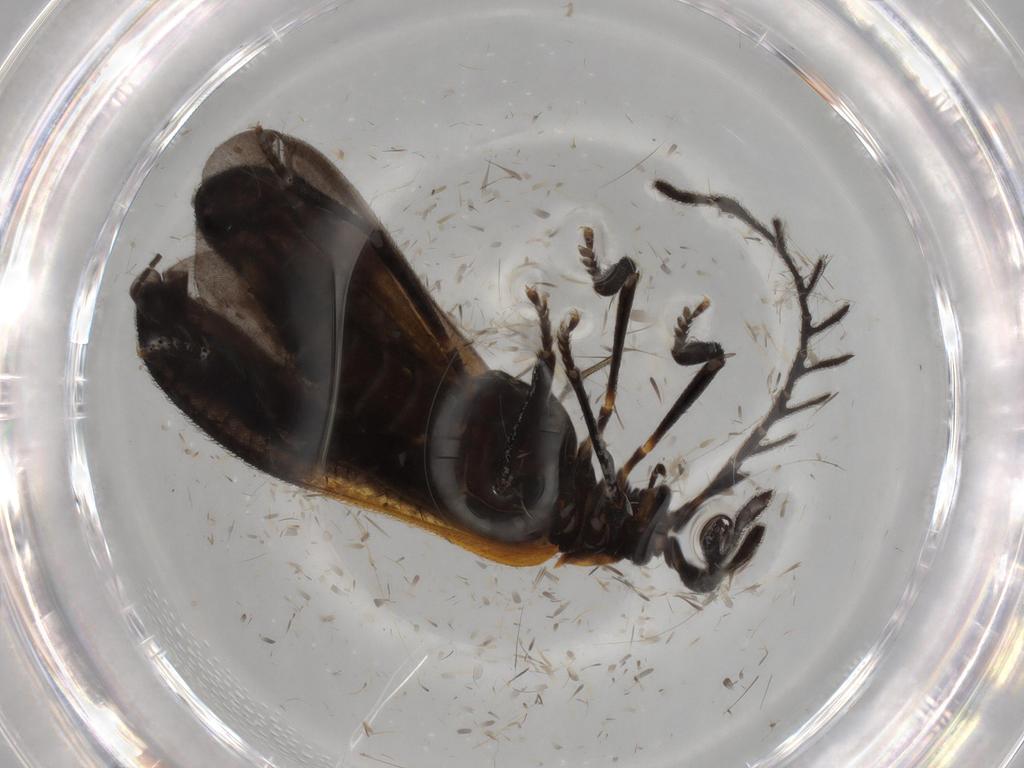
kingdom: Animalia
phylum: Arthropoda
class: Insecta
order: Coleoptera
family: Lycidae
